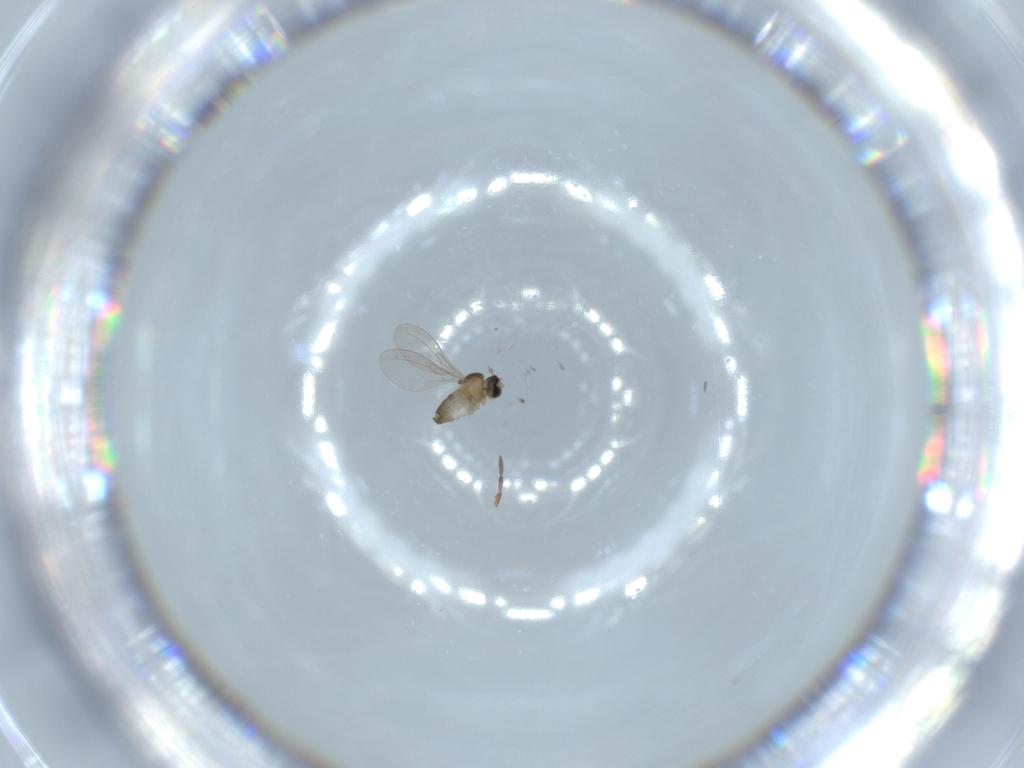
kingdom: Animalia
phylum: Arthropoda
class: Insecta
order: Diptera
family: Cecidomyiidae
